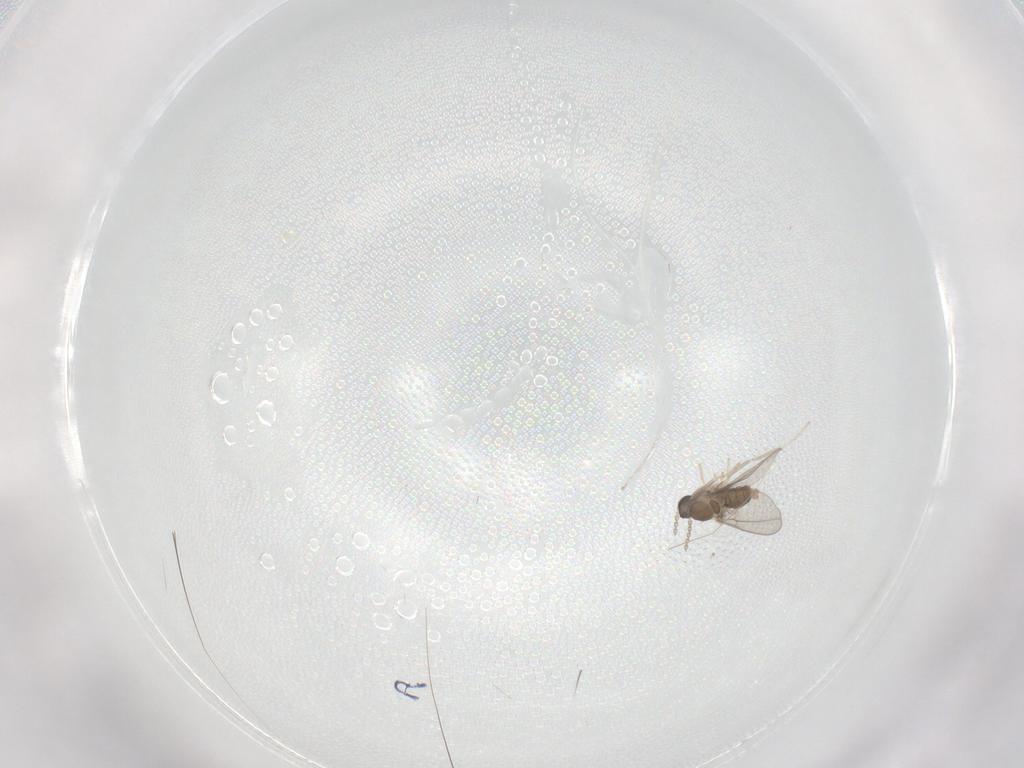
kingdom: Animalia
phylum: Arthropoda
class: Insecta
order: Diptera
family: Cecidomyiidae
